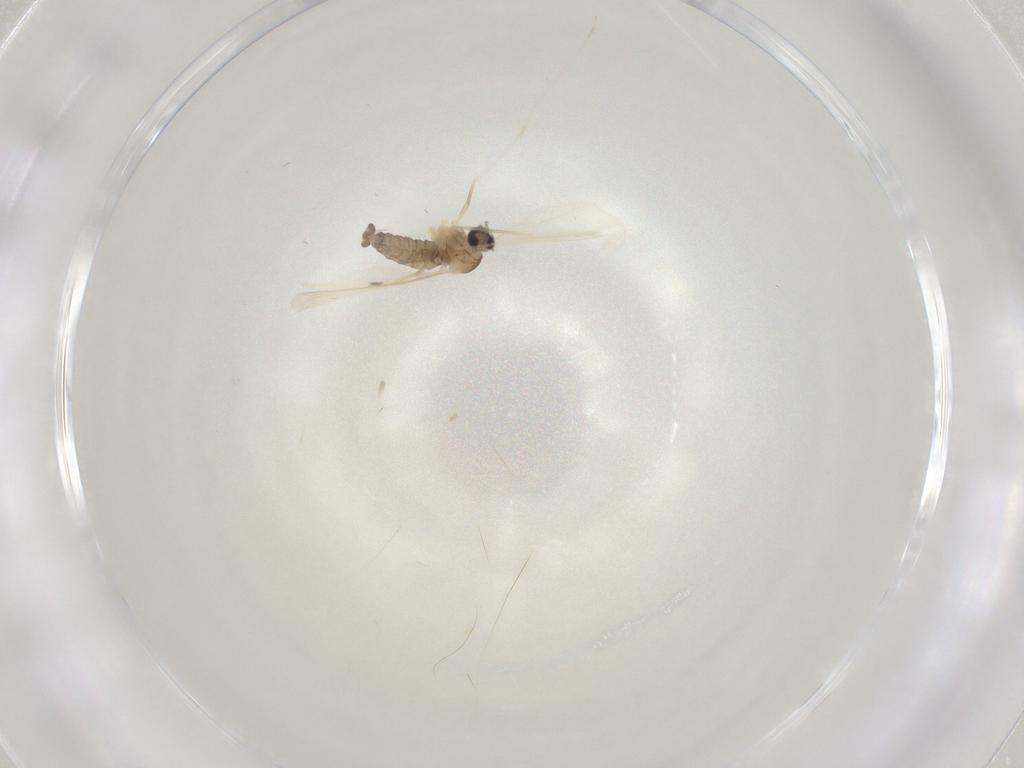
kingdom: Animalia
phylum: Arthropoda
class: Insecta
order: Diptera
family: Cecidomyiidae
